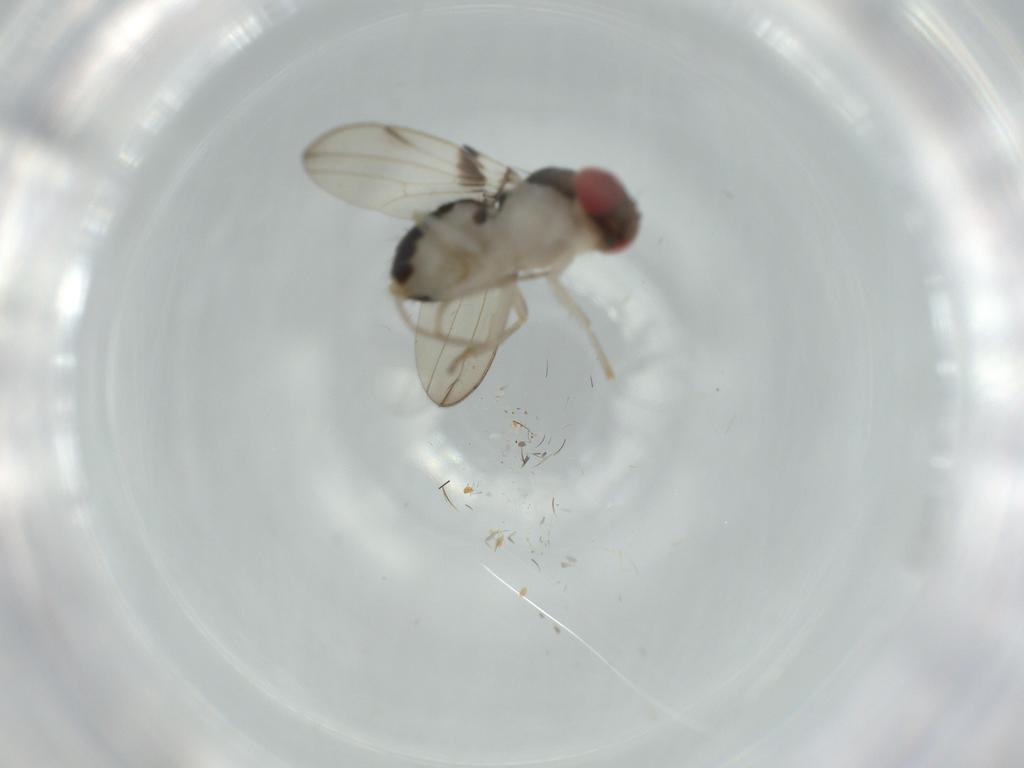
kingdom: Animalia
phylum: Arthropoda
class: Insecta
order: Diptera
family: Drosophilidae
